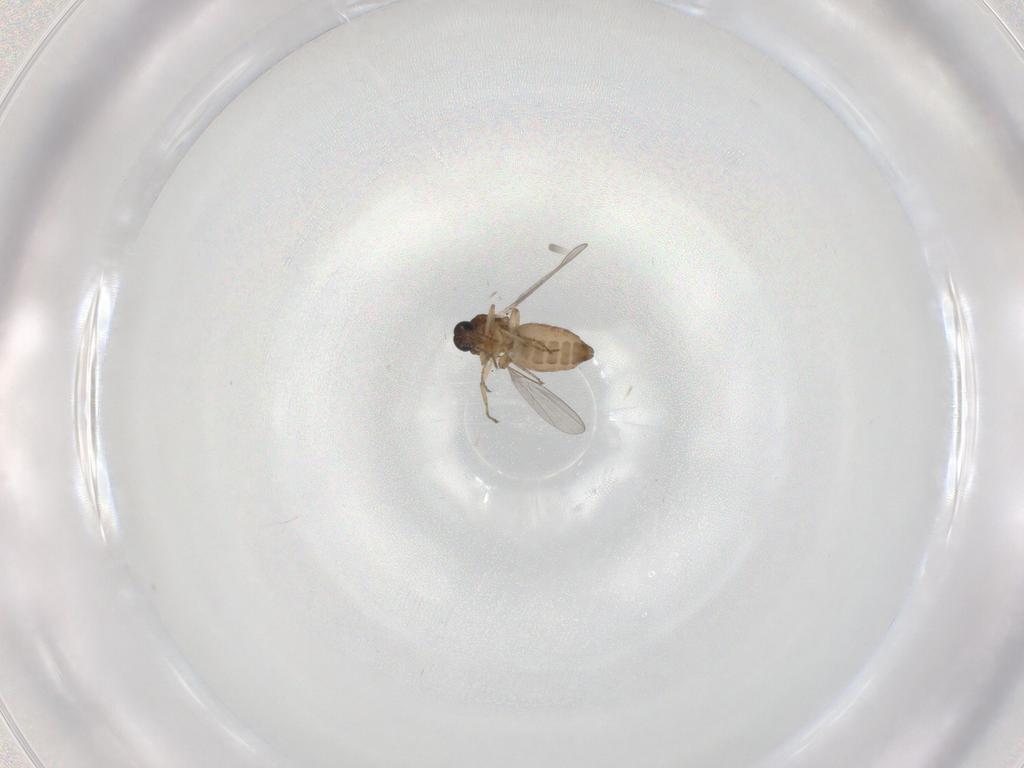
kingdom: Animalia
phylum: Arthropoda
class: Insecta
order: Diptera
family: Ceratopogonidae
